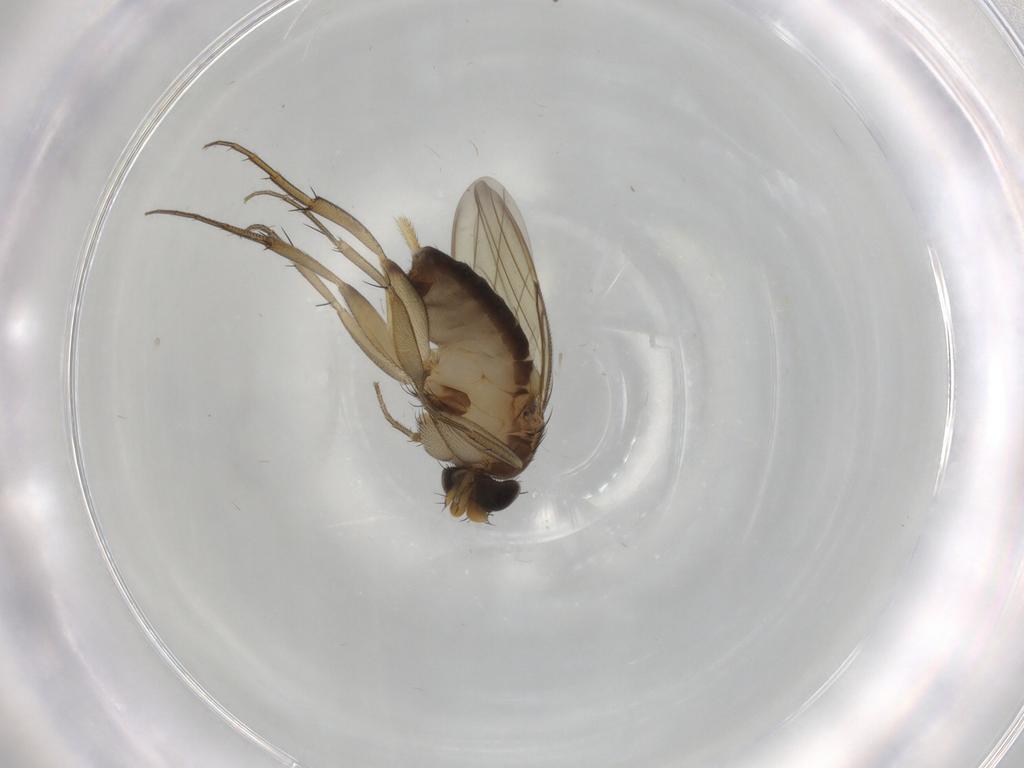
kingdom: Animalia
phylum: Arthropoda
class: Insecta
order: Diptera
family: Phoridae
